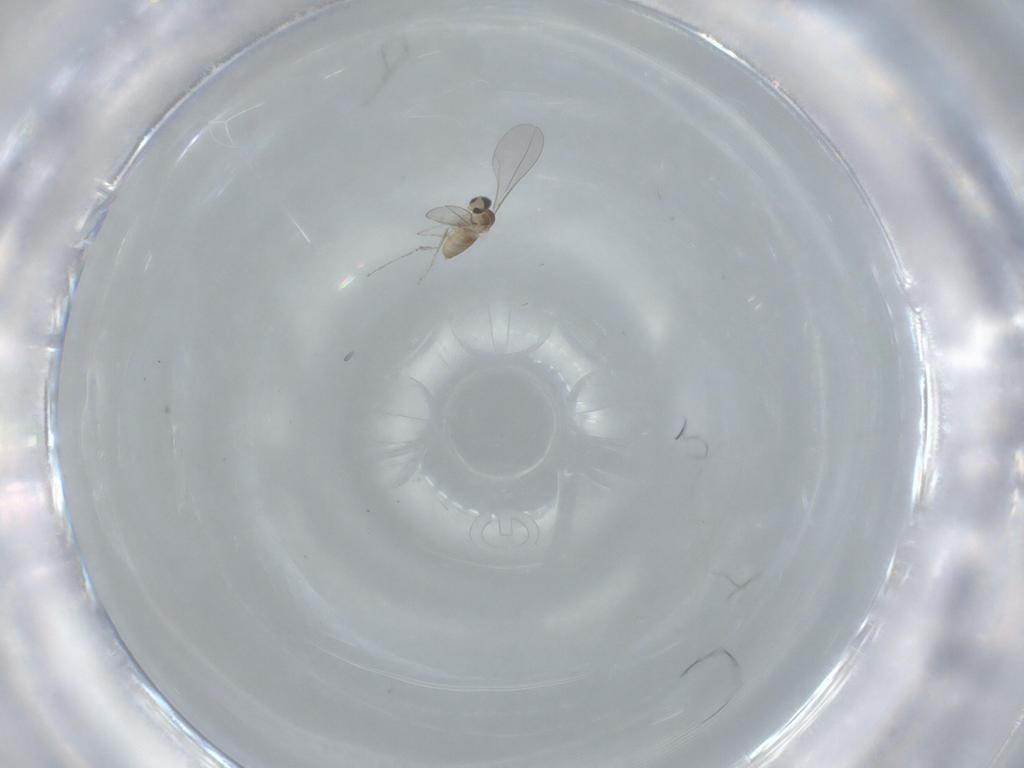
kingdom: Animalia
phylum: Arthropoda
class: Insecta
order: Diptera
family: Cecidomyiidae
